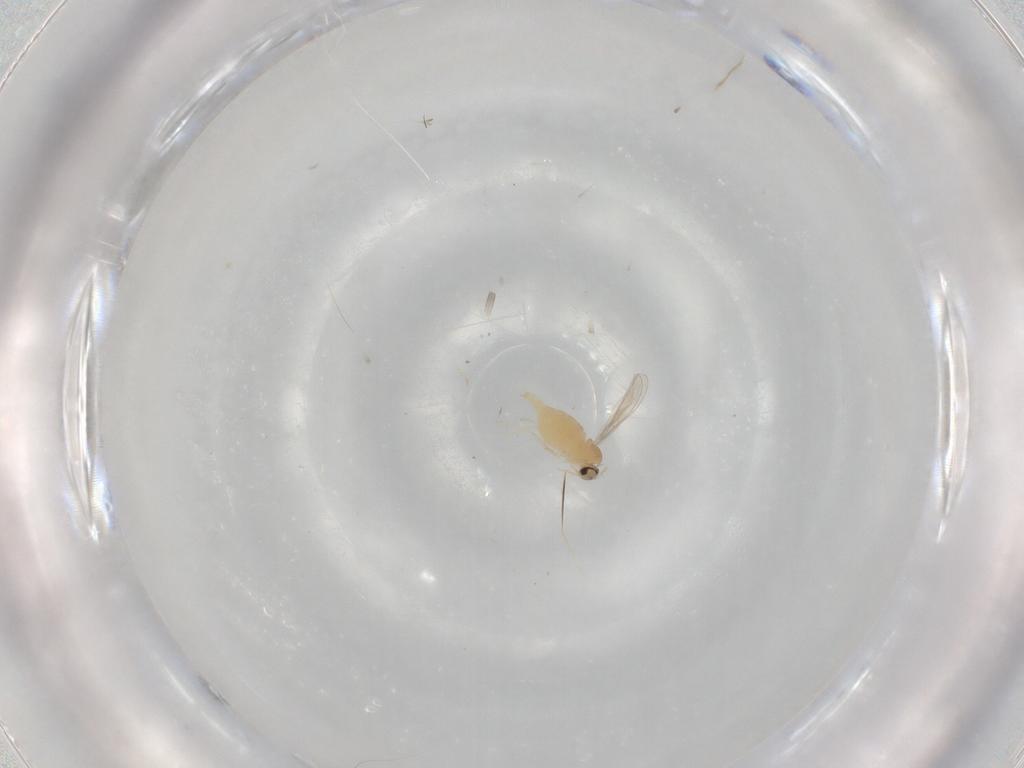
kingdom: Animalia
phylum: Arthropoda
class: Insecta
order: Diptera
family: Cecidomyiidae
